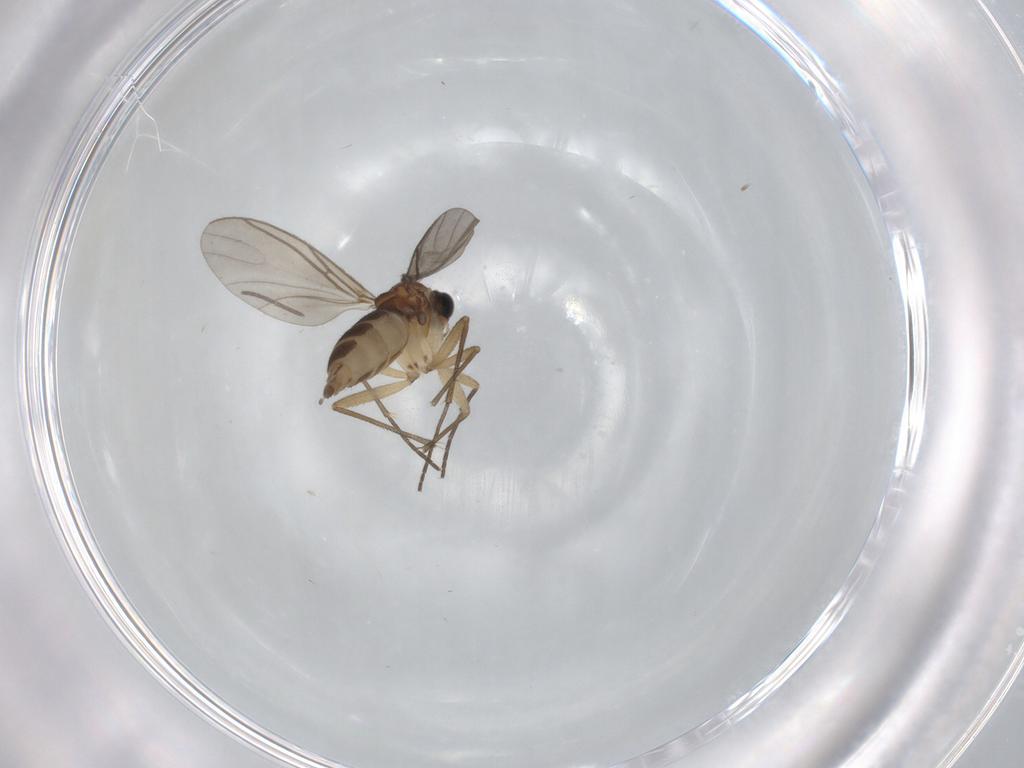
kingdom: Animalia
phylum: Arthropoda
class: Insecta
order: Diptera
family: Sciaridae
